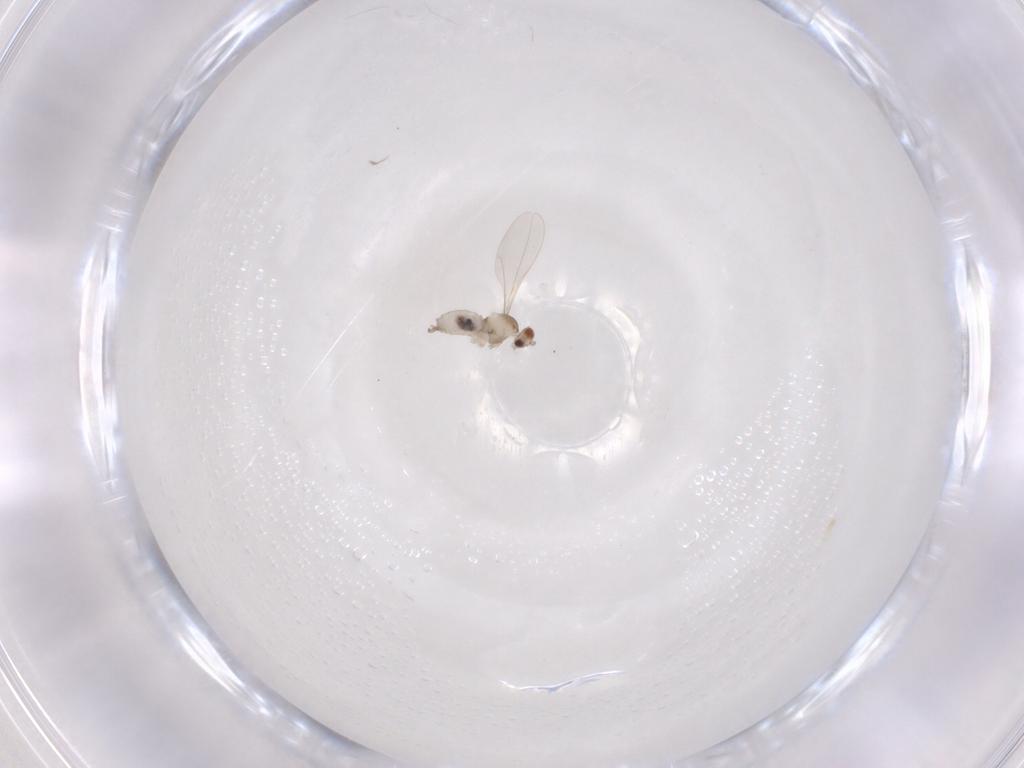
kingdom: Animalia
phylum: Arthropoda
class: Insecta
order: Diptera
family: Cecidomyiidae
